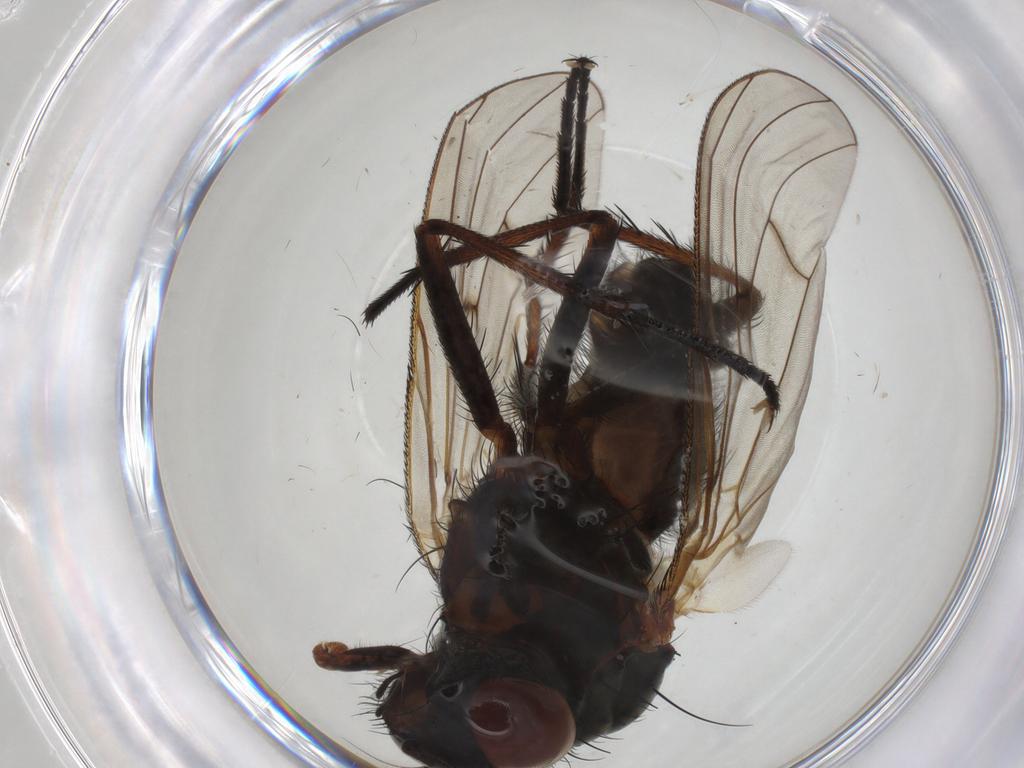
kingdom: Animalia
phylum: Arthropoda
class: Insecta
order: Diptera
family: Anthomyiidae
